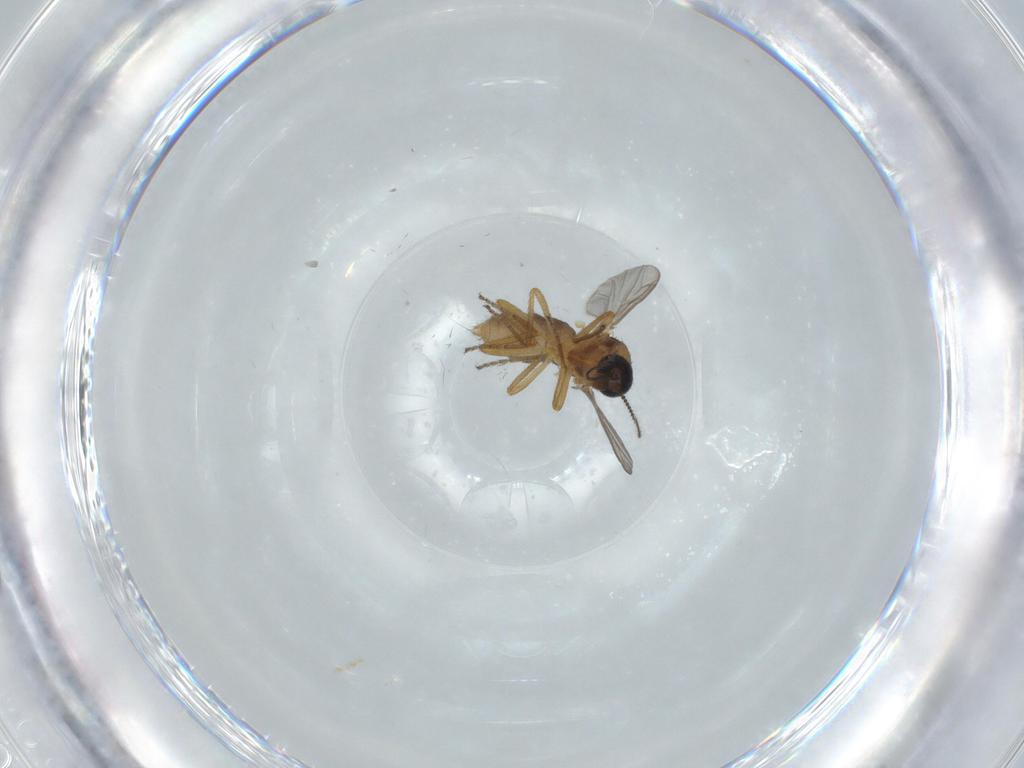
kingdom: Animalia
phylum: Arthropoda
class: Insecta
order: Diptera
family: Ceratopogonidae
